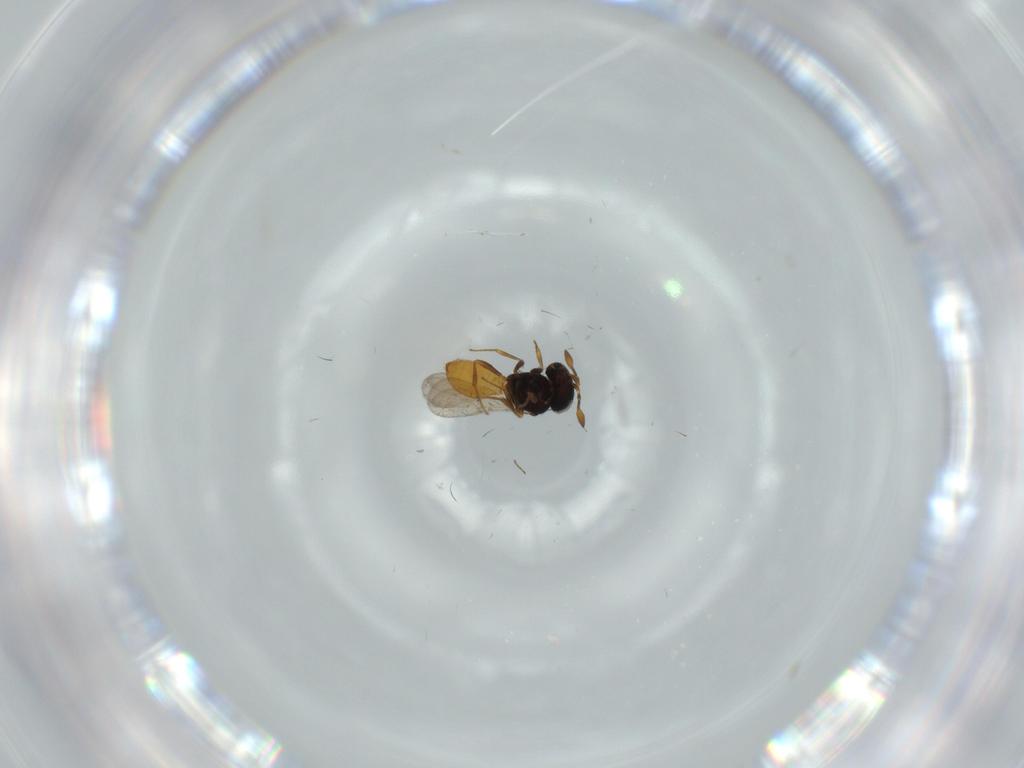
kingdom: Animalia
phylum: Arthropoda
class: Insecta
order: Hymenoptera
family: Scelionidae
